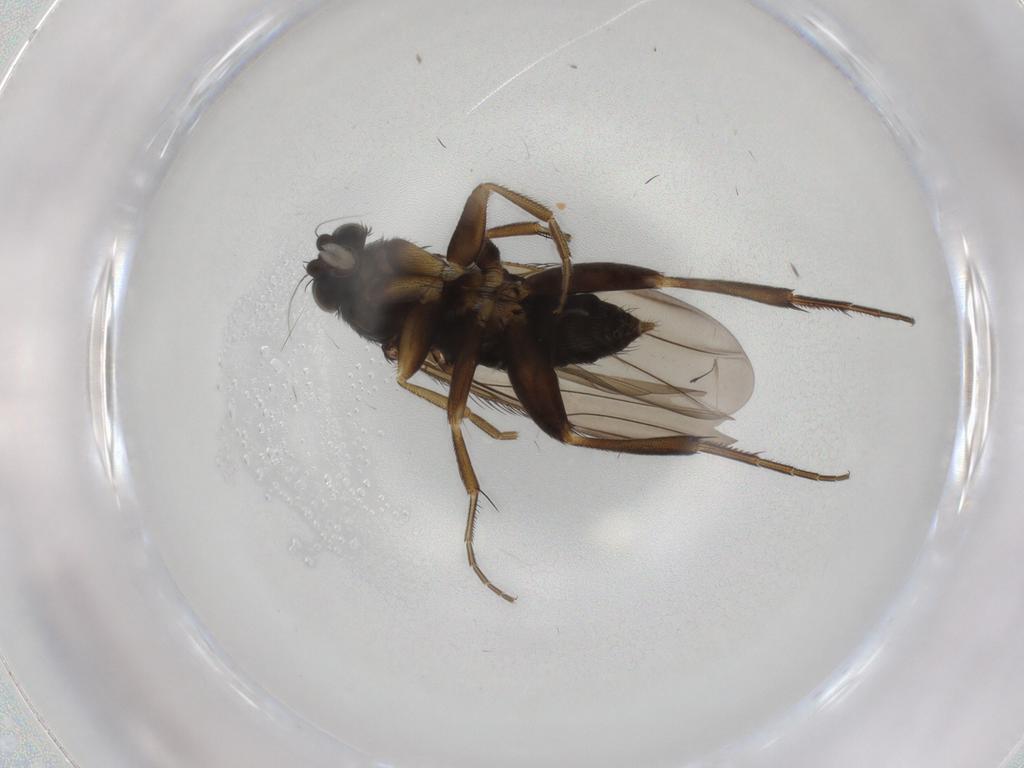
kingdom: Animalia
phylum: Arthropoda
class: Insecta
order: Diptera
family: Phoridae
